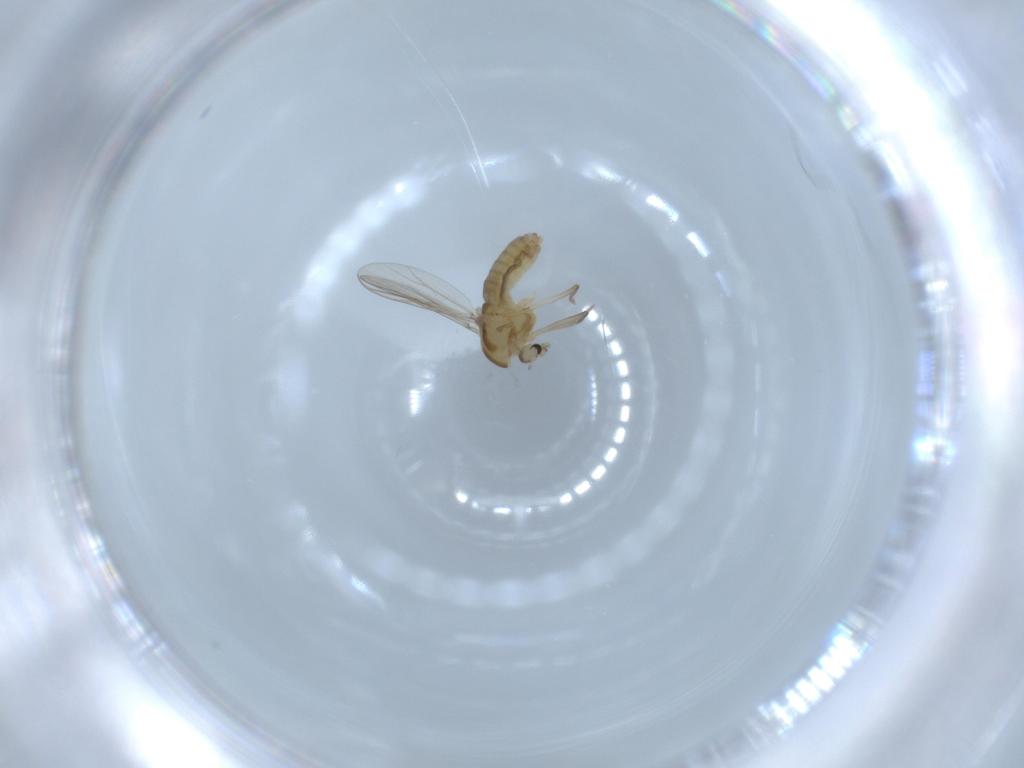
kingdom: Animalia
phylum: Arthropoda
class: Insecta
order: Diptera
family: Chironomidae
